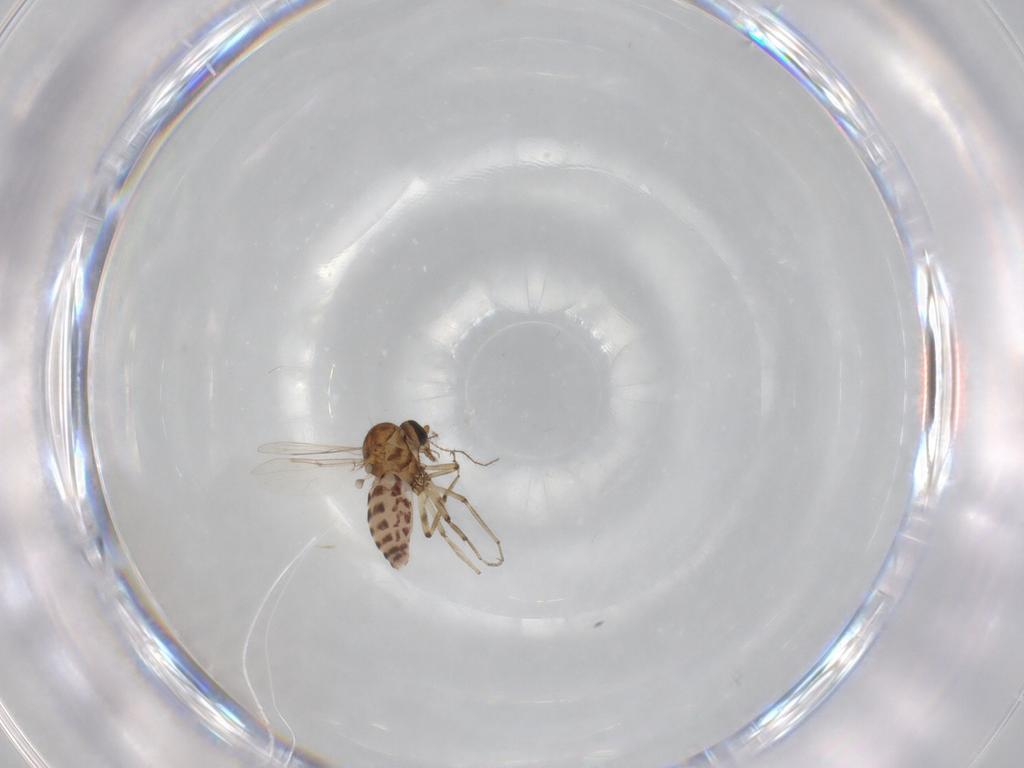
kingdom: Animalia
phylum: Arthropoda
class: Insecta
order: Diptera
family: Ceratopogonidae
